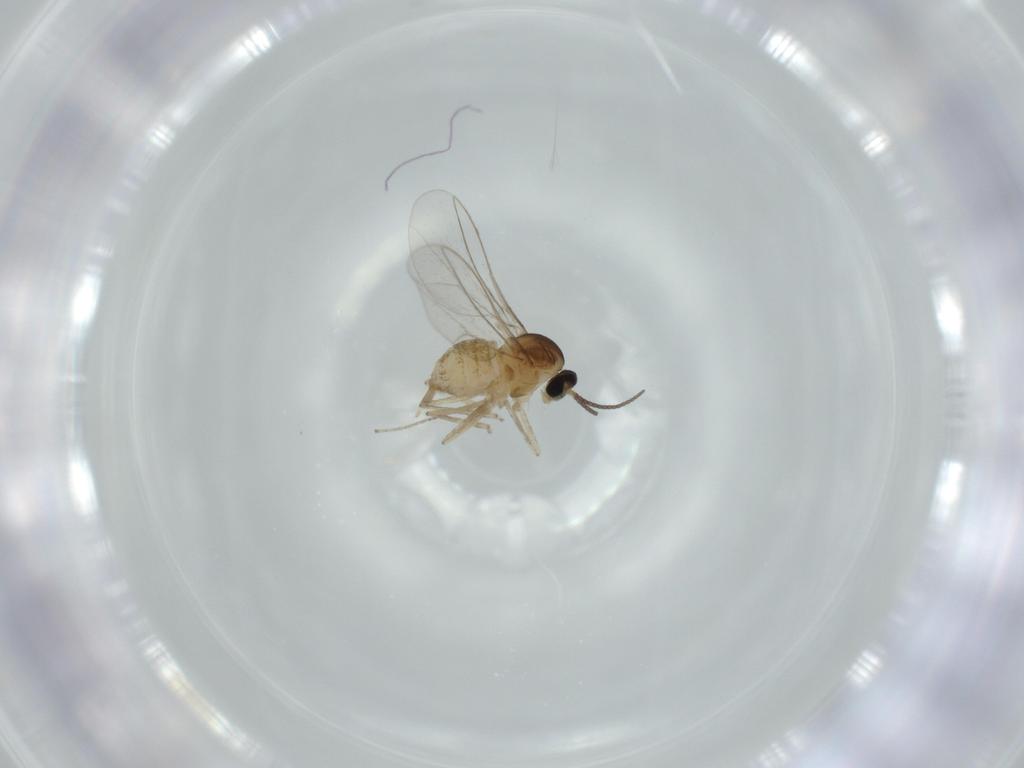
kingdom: Animalia
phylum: Arthropoda
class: Insecta
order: Diptera
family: Cecidomyiidae
